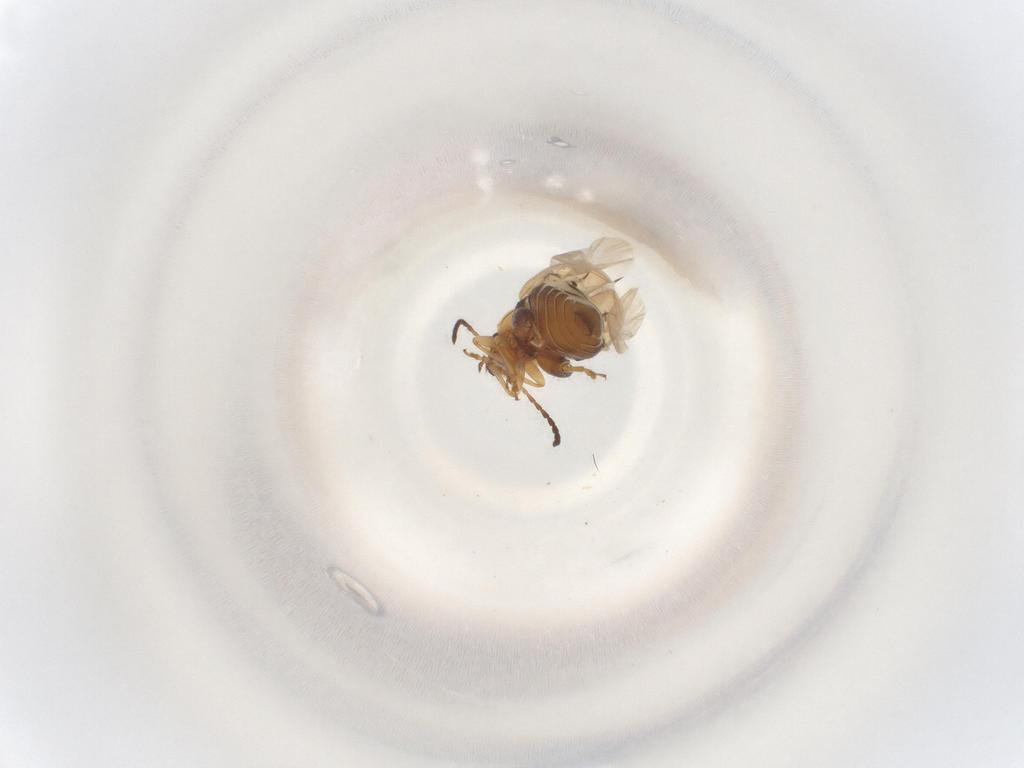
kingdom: Animalia
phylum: Arthropoda
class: Insecta
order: Coleoptera
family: Chrysomelidae
